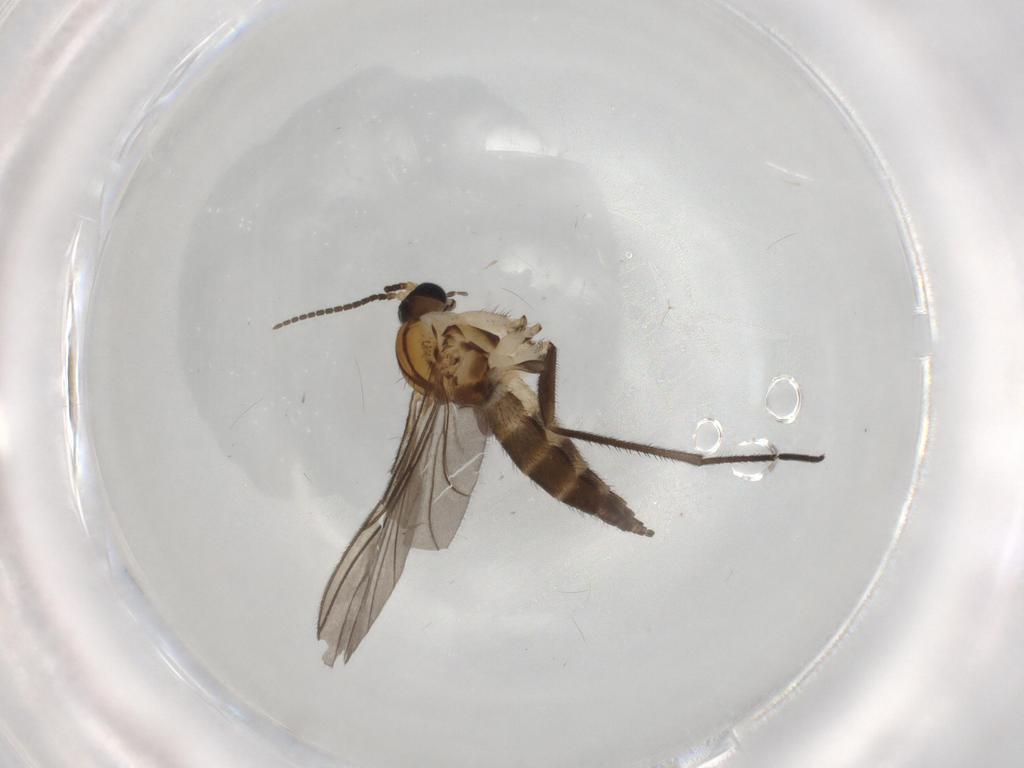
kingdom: Animalia
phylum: Arthropoda
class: Insecta
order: Diptera
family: Sciaridae
